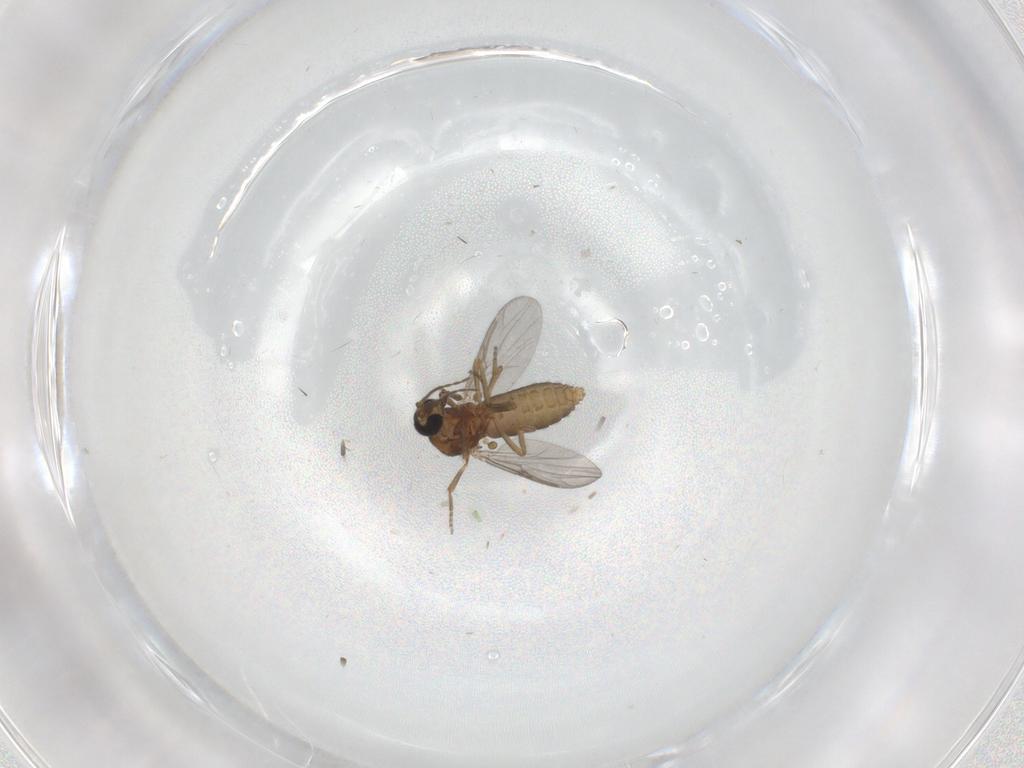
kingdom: Animalia
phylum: Arthropoda
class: Insecta
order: Diptera
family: Ceratopogonidae
